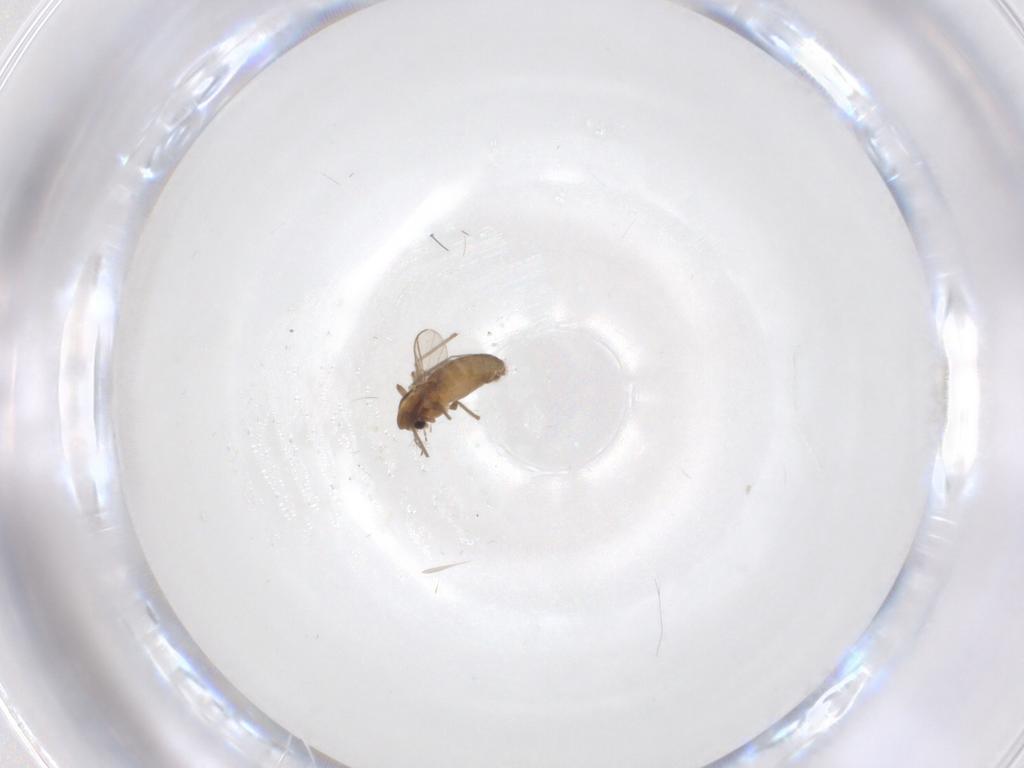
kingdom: Animalia
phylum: Arthropoda
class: Insecta
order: Diptera
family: Chironomidae
